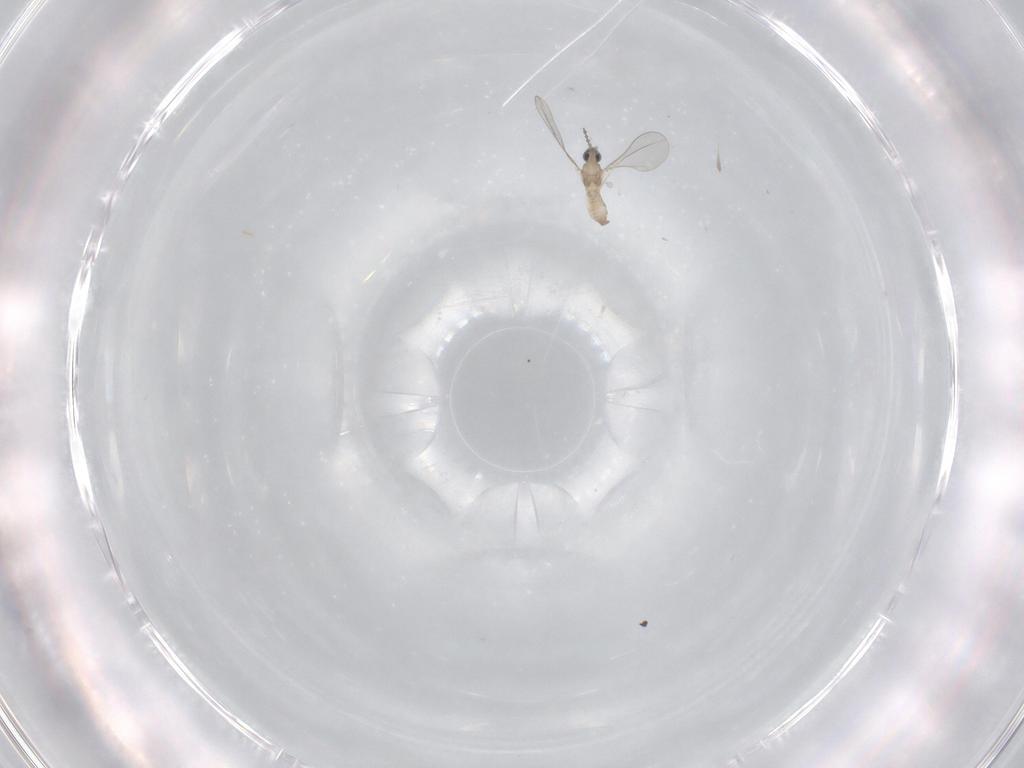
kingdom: Animalia
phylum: Arthropoda
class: Insecta
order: Diptera
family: Cecidomyiidae
